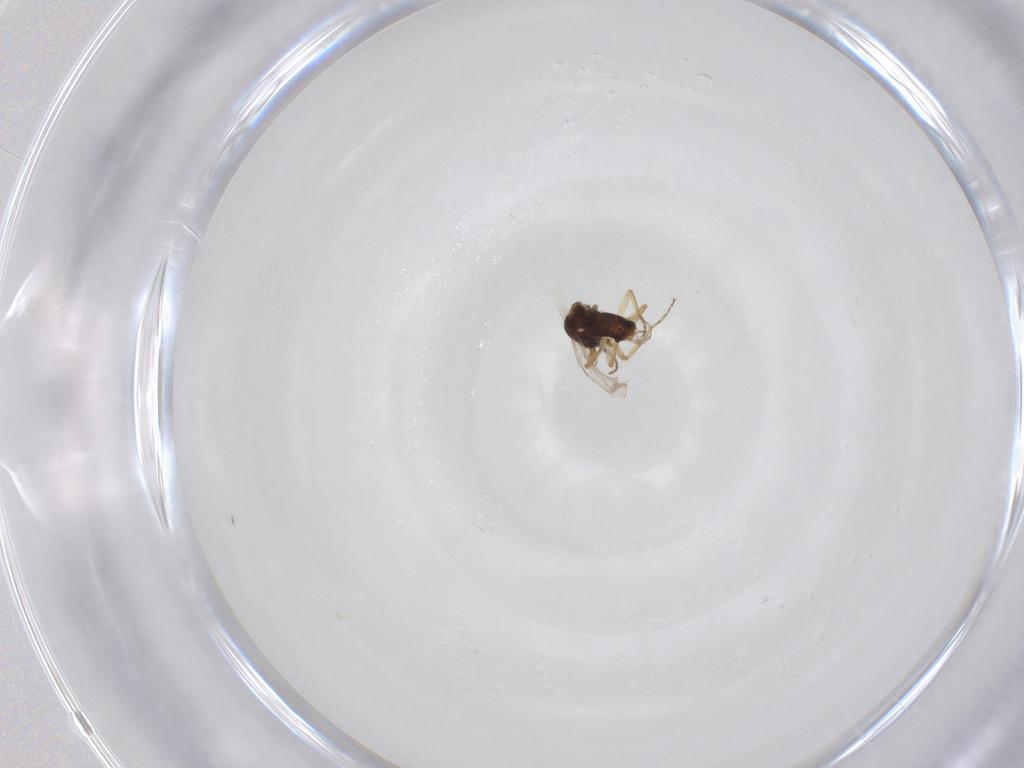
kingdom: Animalia
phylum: Arthropoda
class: Insecta
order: Diptera
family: Ceratopogonidae
